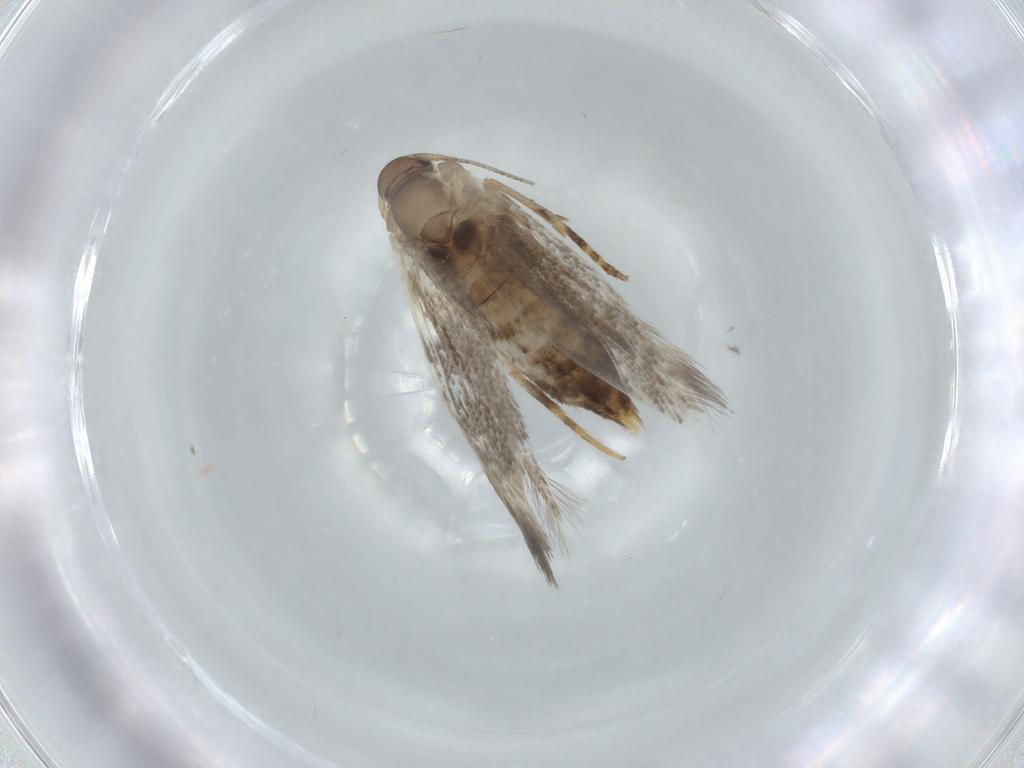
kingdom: Animalia
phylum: Arthropoda
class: Insecta
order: Lepidoptera
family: Elachistidae
